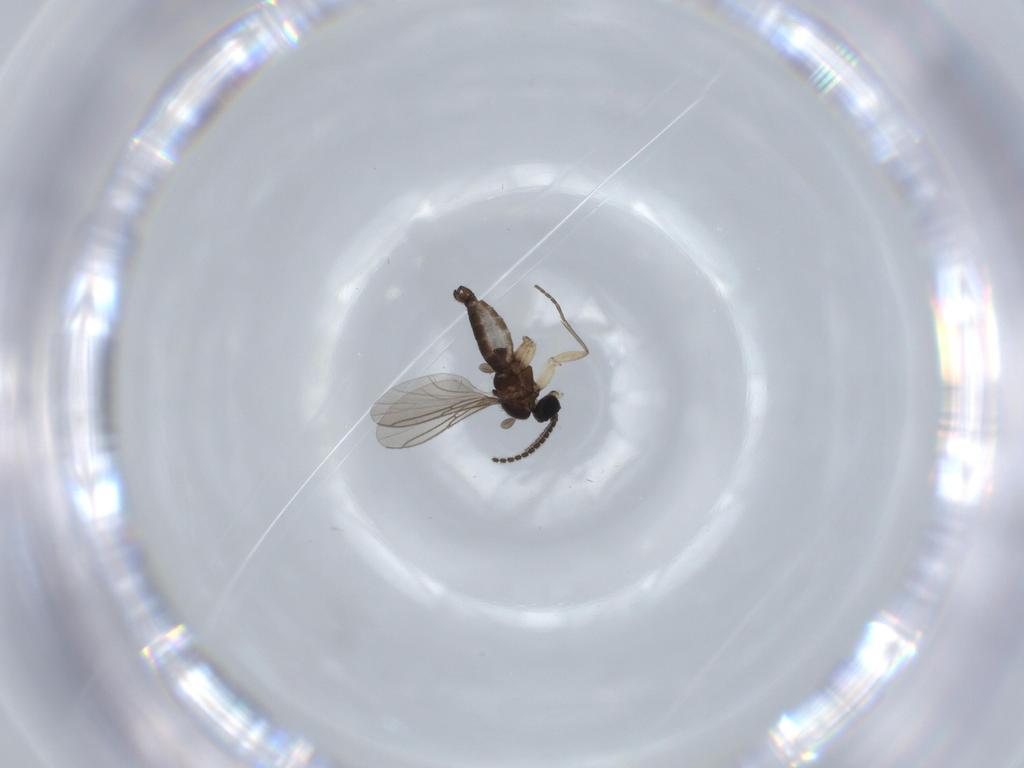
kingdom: Animalia
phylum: Arthropoda
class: Insecta
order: Diptera
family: Sciaridae
